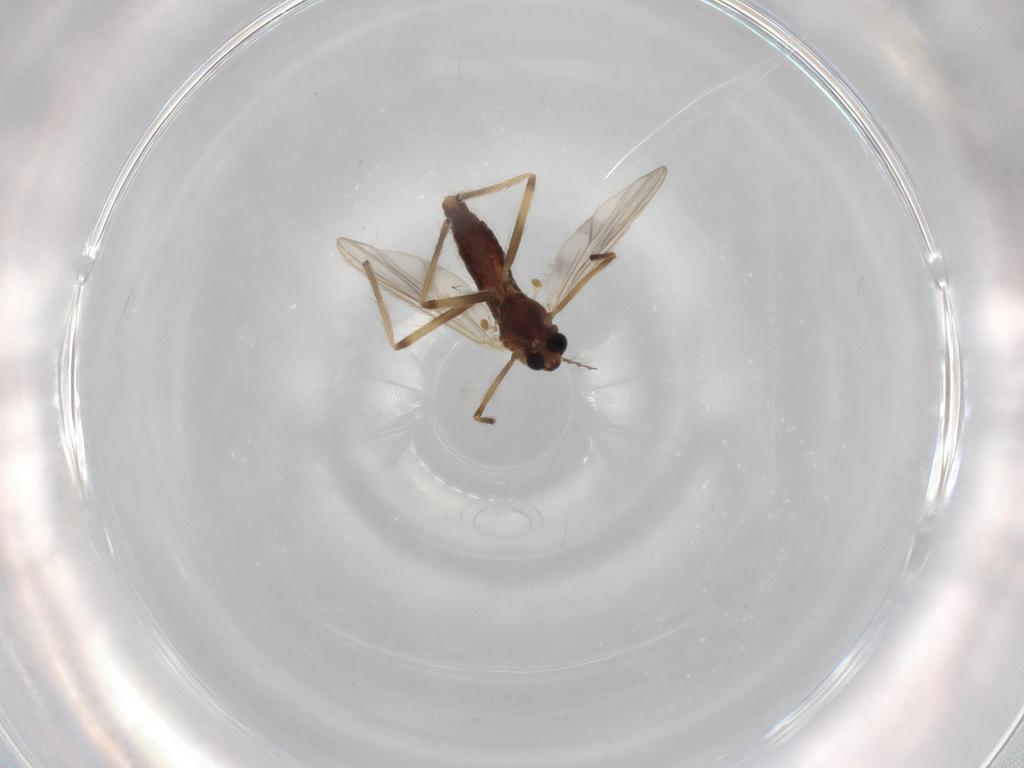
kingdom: Animalia
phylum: Arthropoda
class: Insecta
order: Diptera
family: Chironomidae
